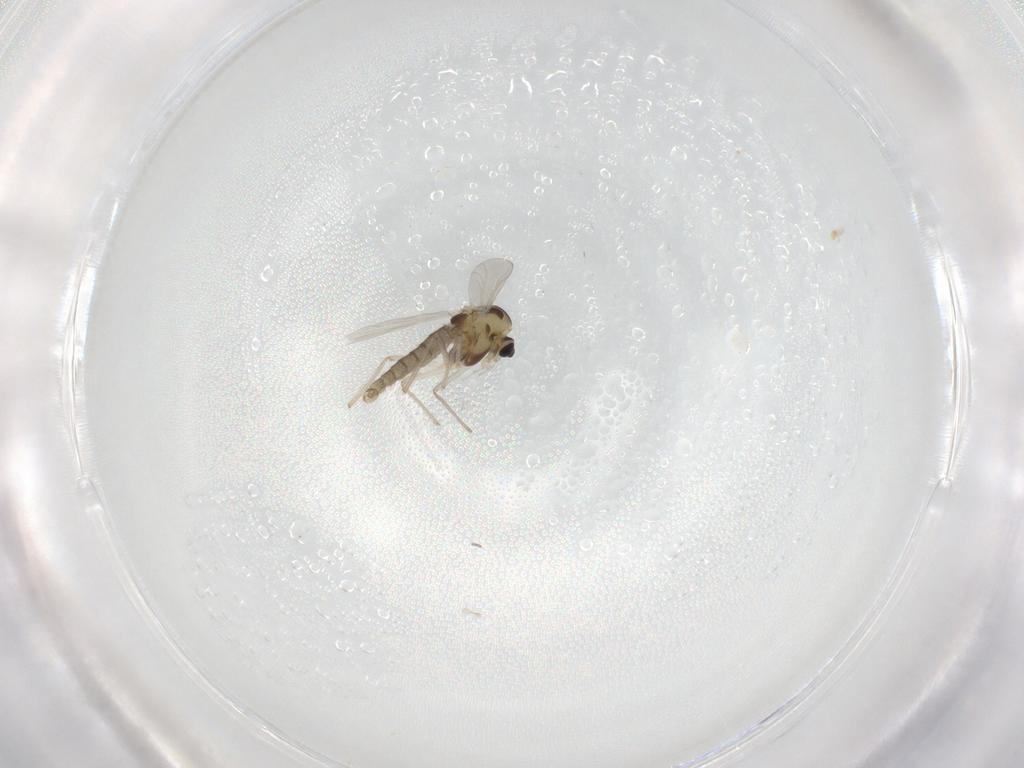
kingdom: Animalia
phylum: Arthropoda
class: Insecta
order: Diptera
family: Chironomidae
